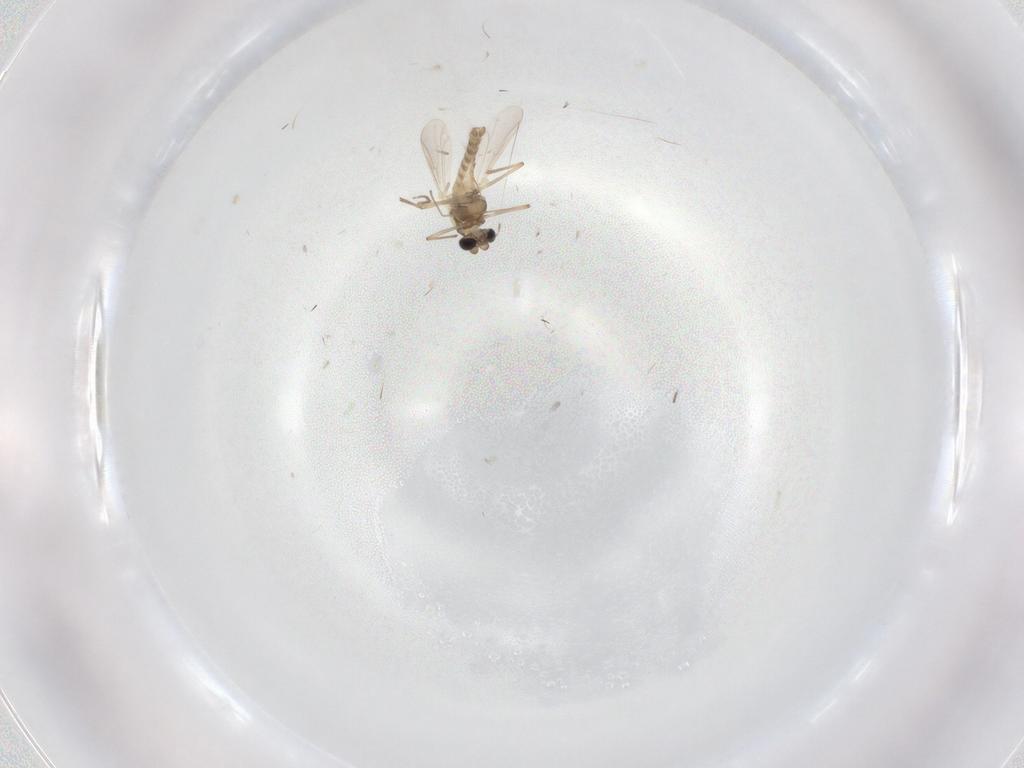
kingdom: Animalia
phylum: Arthropoda
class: Insecta
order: Diptera
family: Chironomidae
